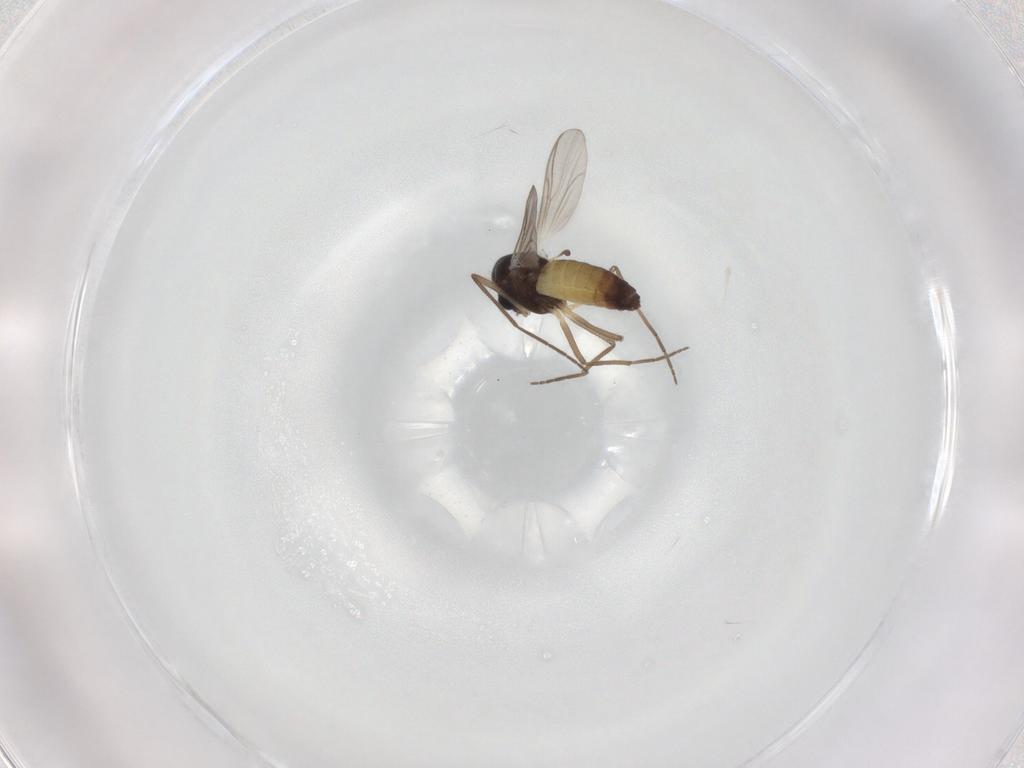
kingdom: Animalia
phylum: Arthropoda
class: Insecta
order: Diptera
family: Chironomidae
